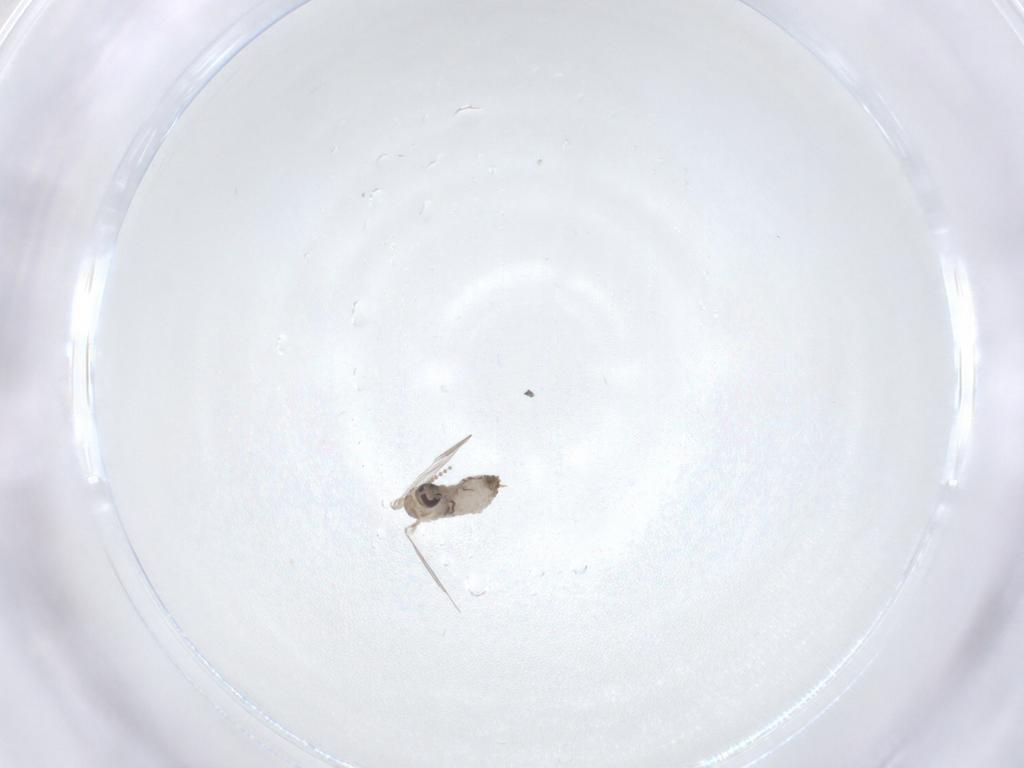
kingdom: Animalia
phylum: Arthropoda
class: Insecta
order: Diptera
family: Psychodidae
